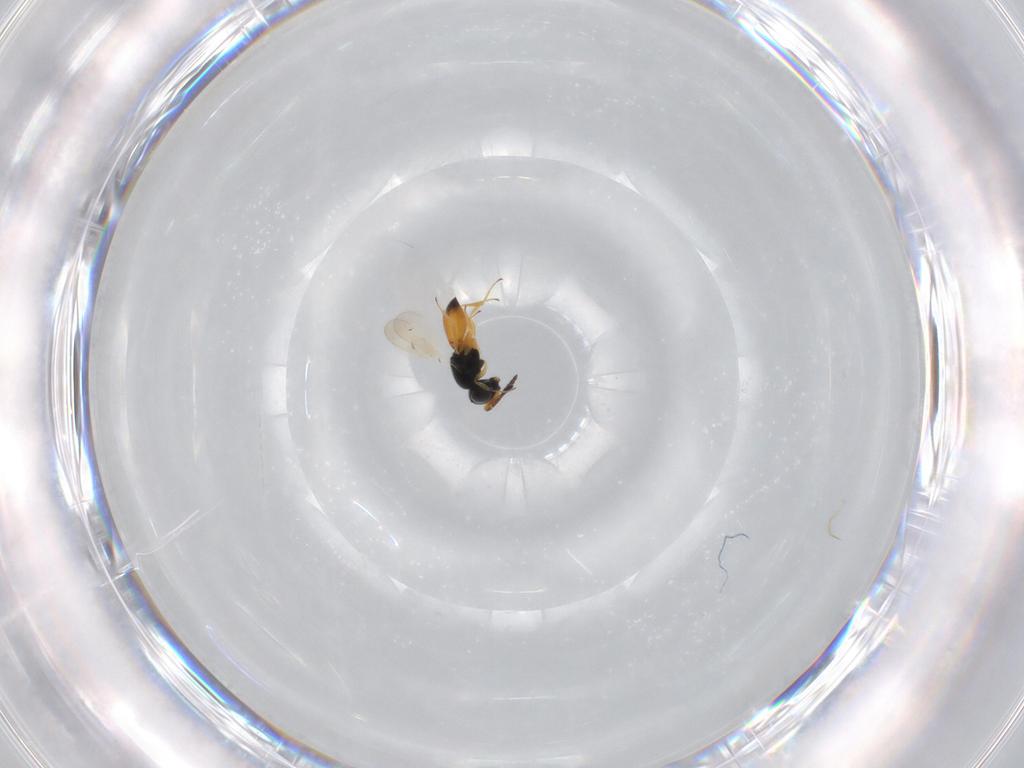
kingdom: Animalia
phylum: Arthropoda
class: Insecta
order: Hymenoptera
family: Scelionidae
